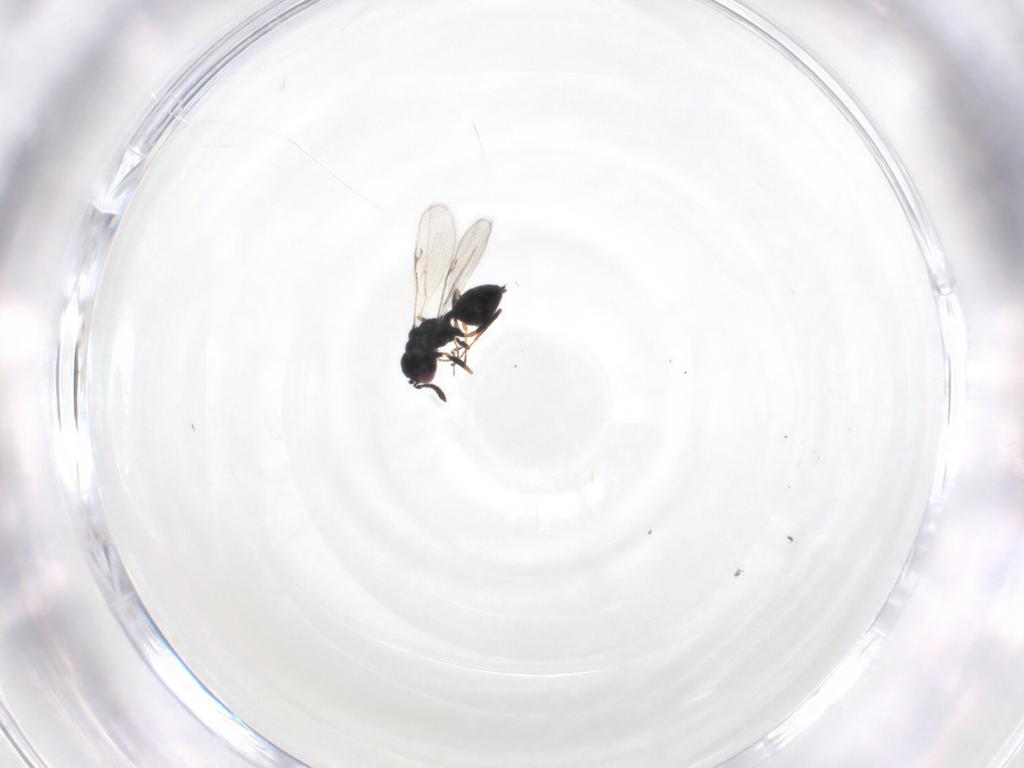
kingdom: Animalia
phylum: Arthropoda
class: Insecta
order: Hymenoptera
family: Chalcidoidea_incertae_sedis
